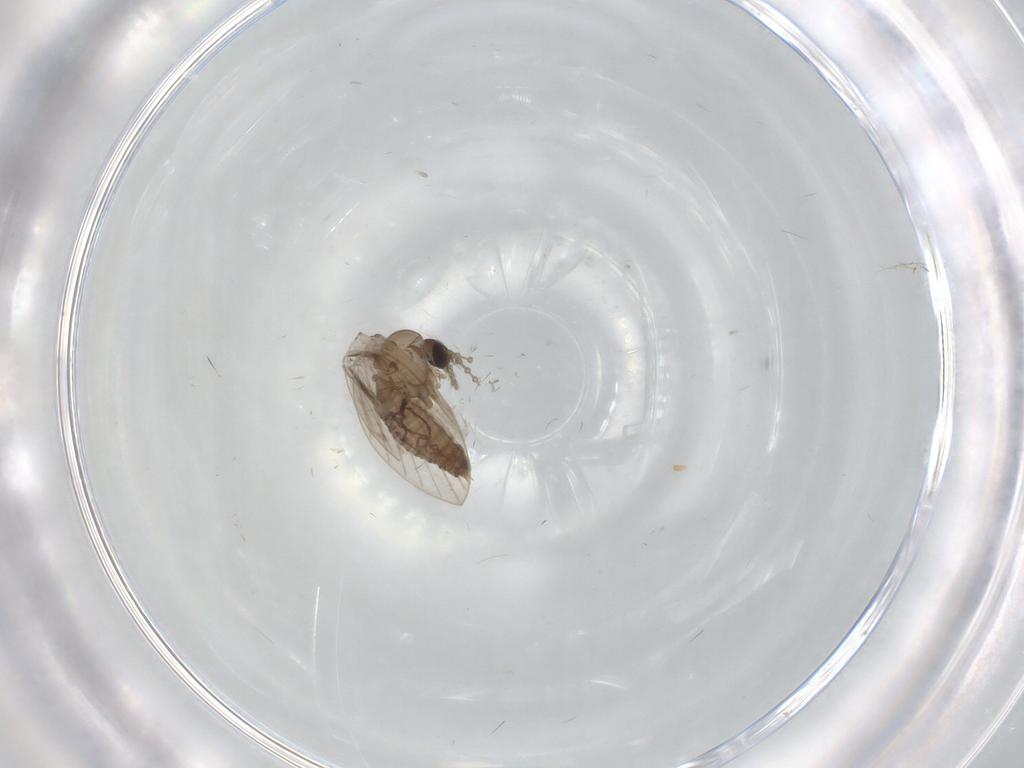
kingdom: Animalia
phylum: Arthropoda
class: Insecta
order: Diptera
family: Psychodidae
